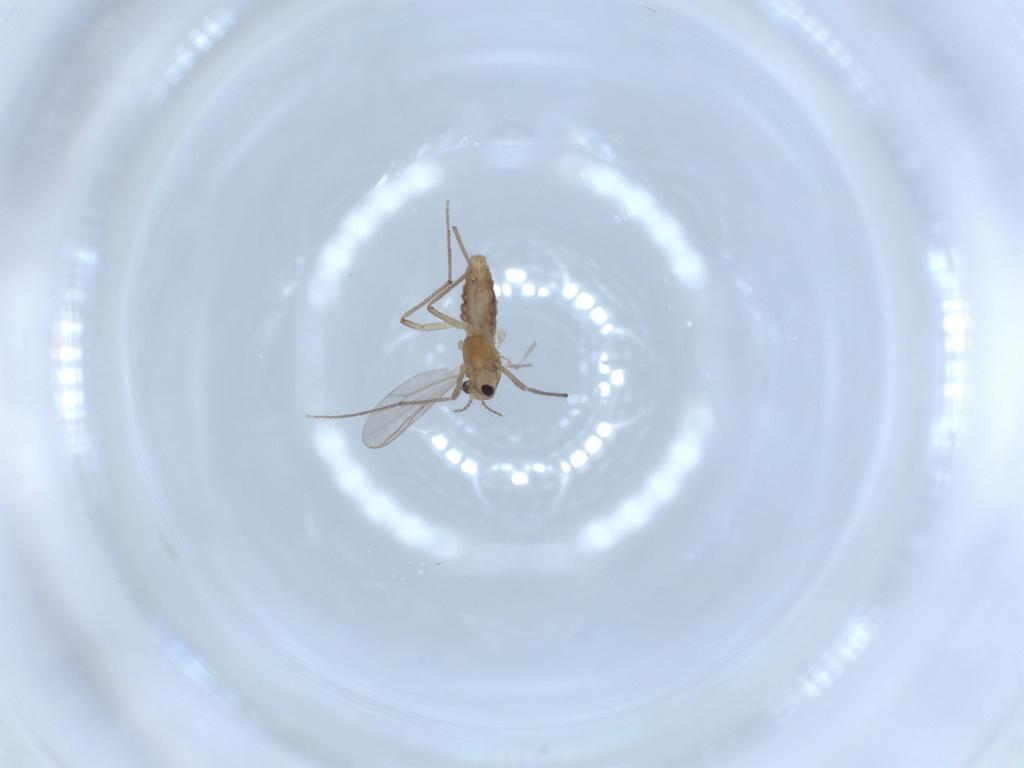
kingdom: Animalia
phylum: Arthropoda
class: Insecta
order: Diptera
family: Chironomidae
